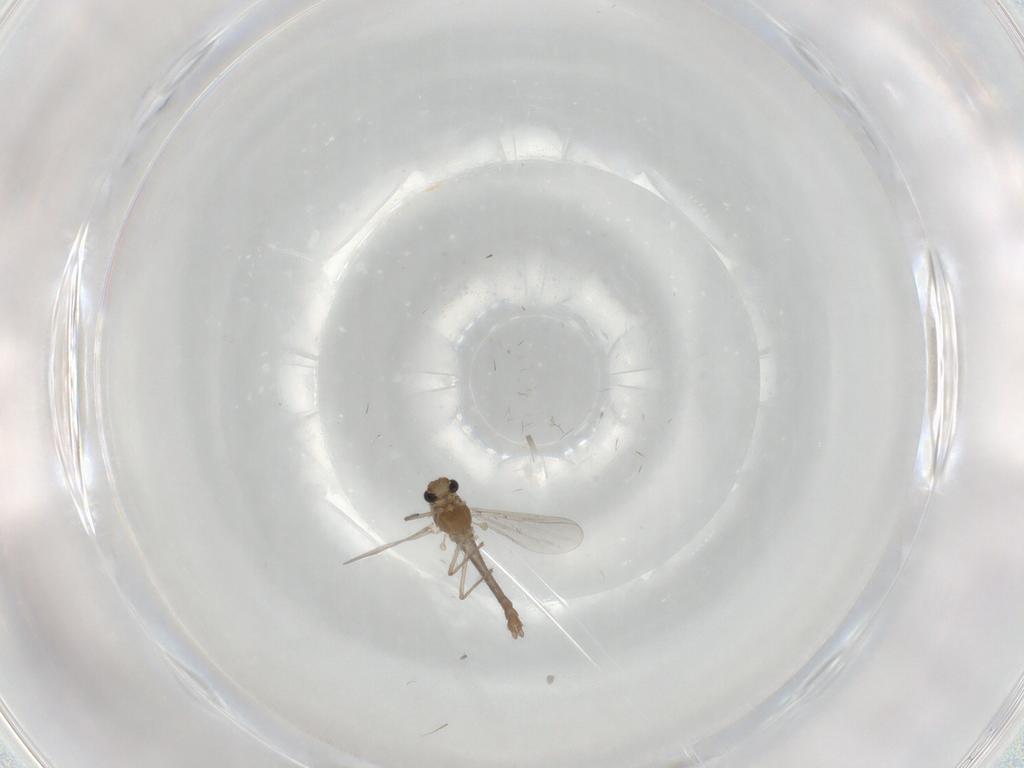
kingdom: Animalia
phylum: Arthropoda
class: Insecta
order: Diptera
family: Chironomidae
